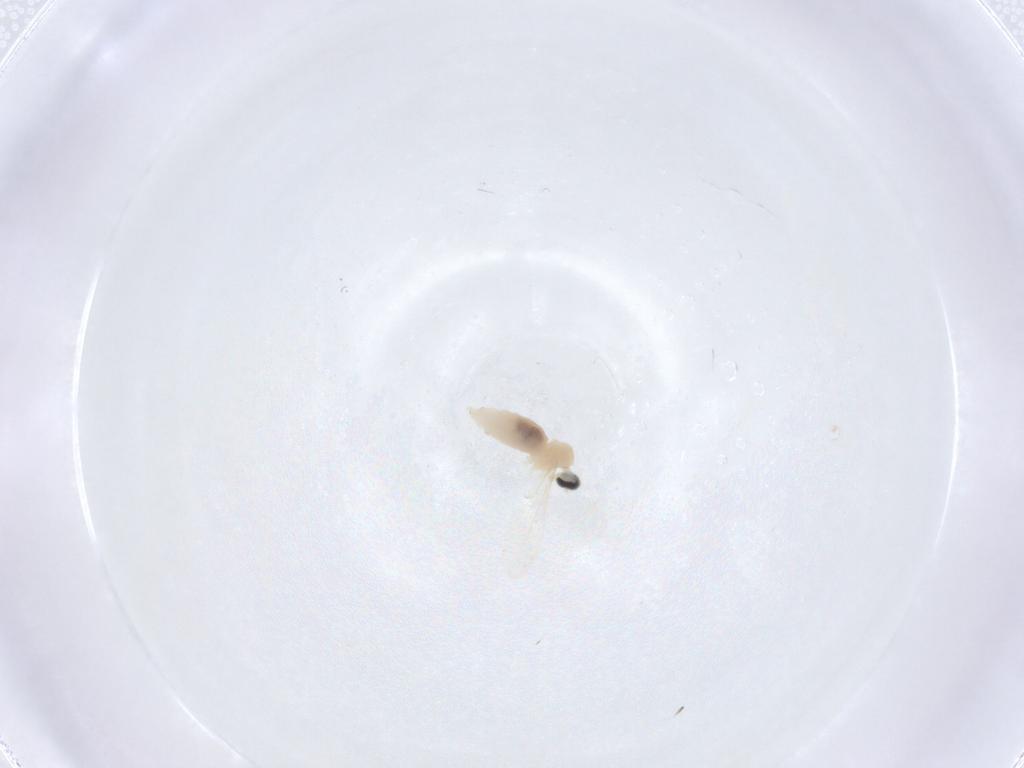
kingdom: Animalia
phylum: Arthropoda
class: Insecta
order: Diptera
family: Cecidomyiidae
